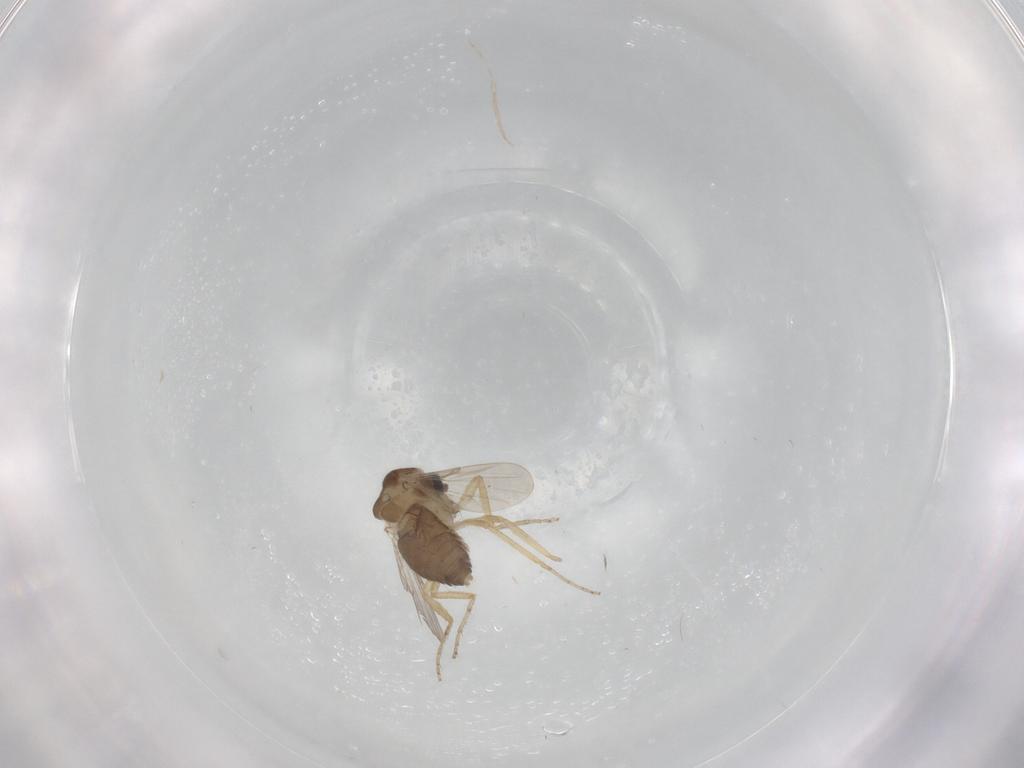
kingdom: Animalia
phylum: Arthropoda
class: Insecta
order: Diptera
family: Ceratopogonidae
